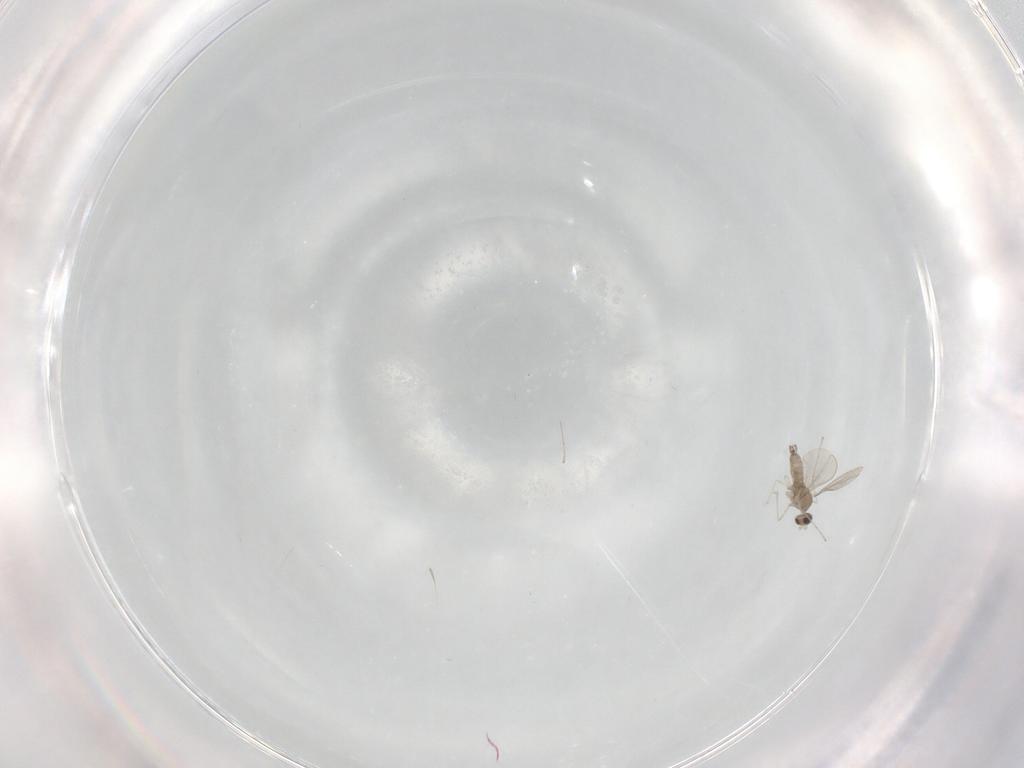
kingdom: Animalia
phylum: Arthropoda
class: Insecta
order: Diptera
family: Cecidomyiidae
